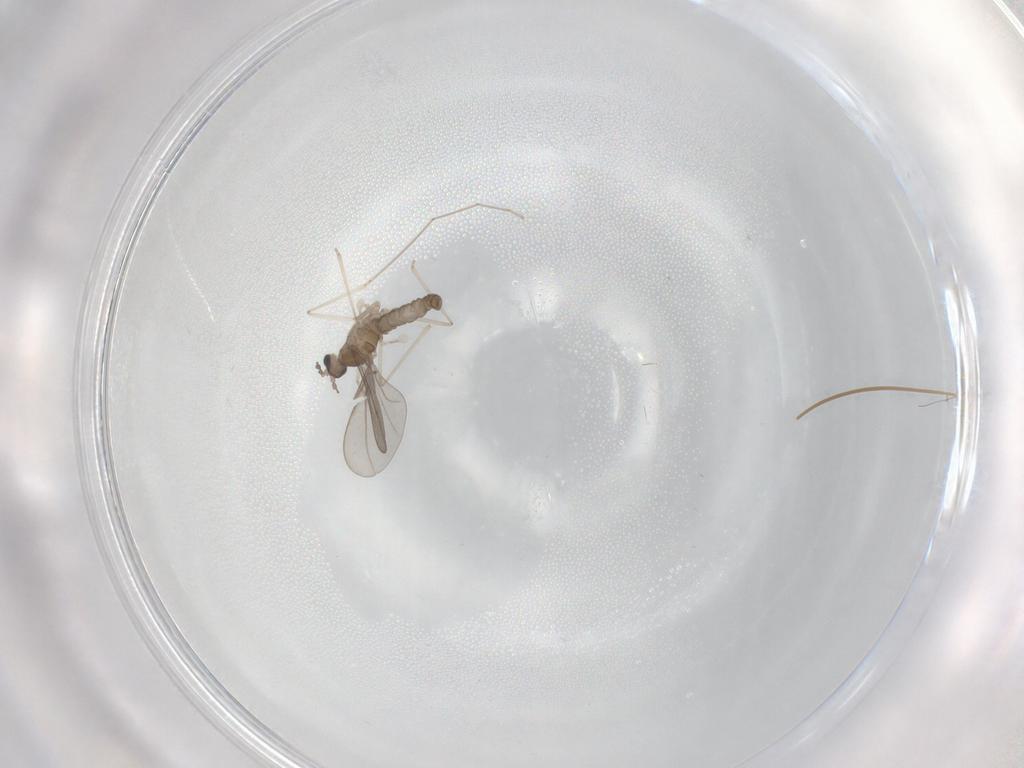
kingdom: Animalia
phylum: Arthropoda
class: Insecta
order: Diptera
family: Cecidomyiidae
